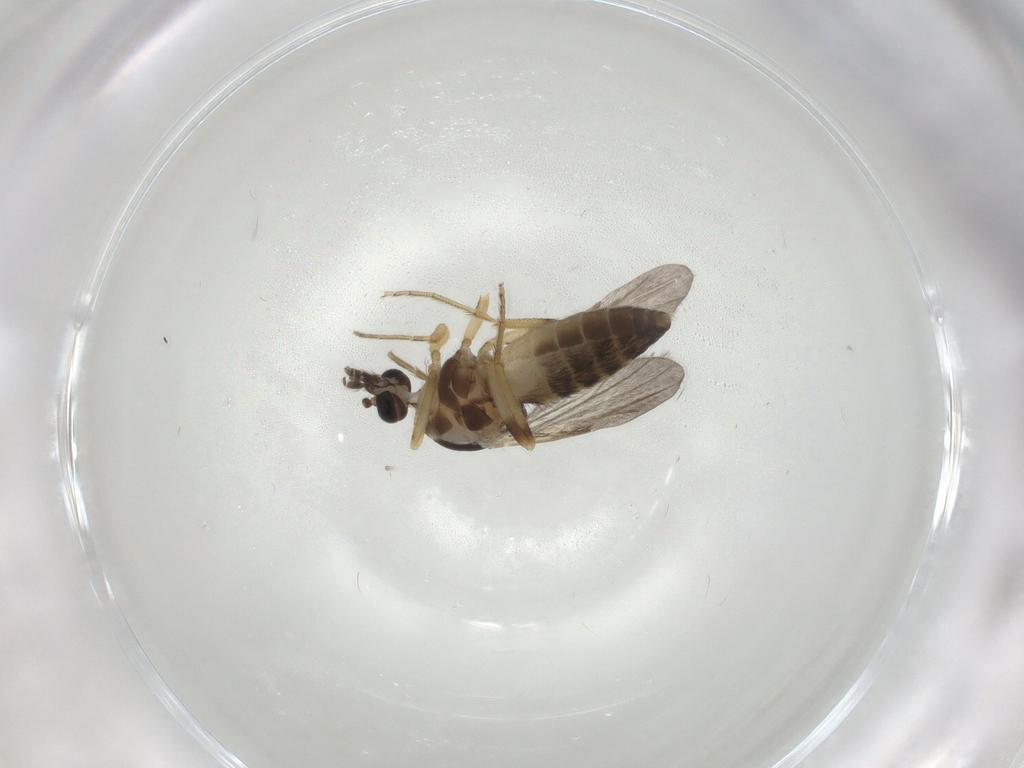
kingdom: Animalia
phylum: Arthropoda
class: Insecta
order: Diptera
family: Ceratopogonidae
